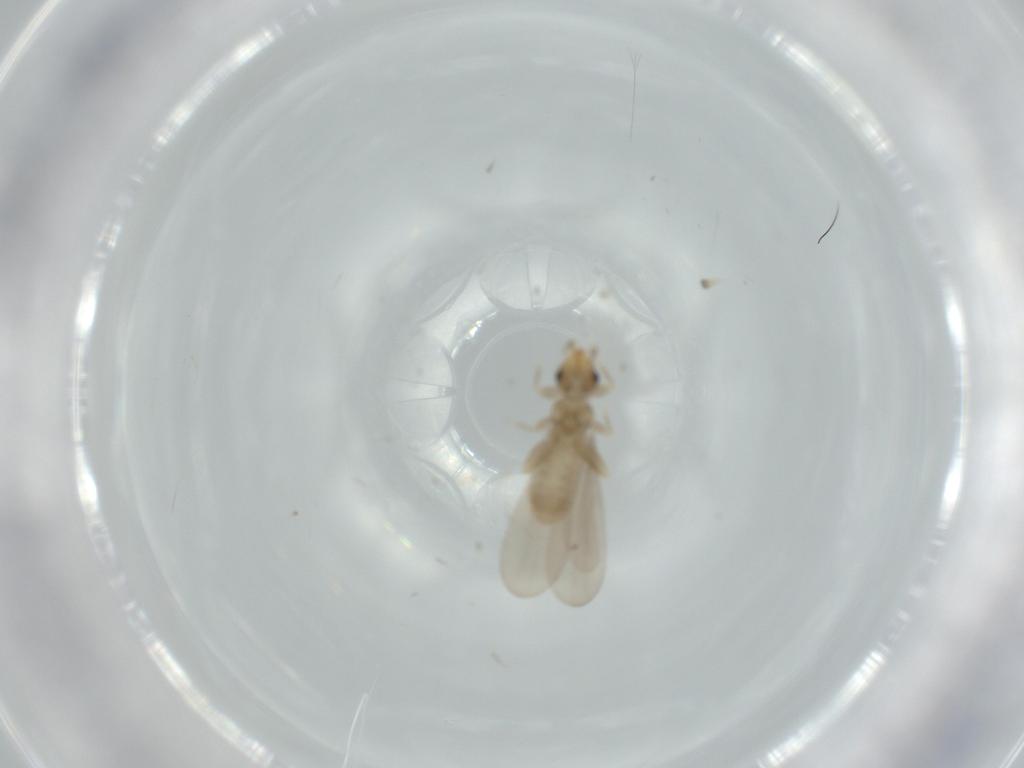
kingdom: Animalia
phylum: Arthropoda
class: Insecta
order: Psocodea
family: Liposcelididae
